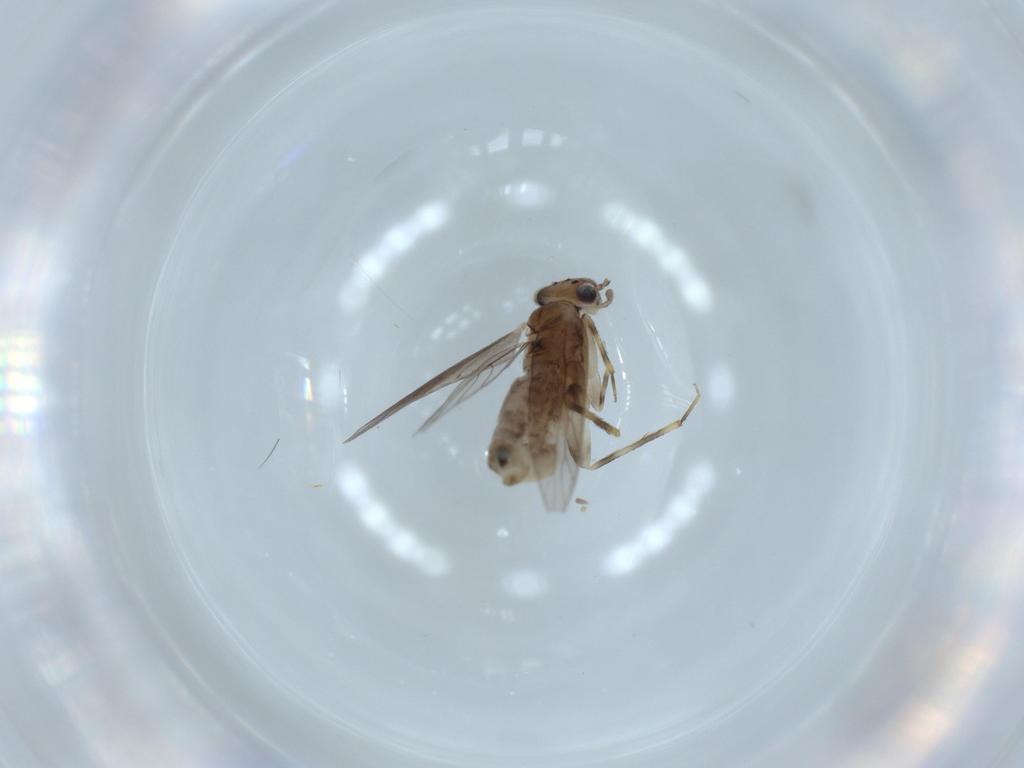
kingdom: Animalia
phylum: Arthropoda
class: Insecta
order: Psocodea
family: Lepidopsocidae
